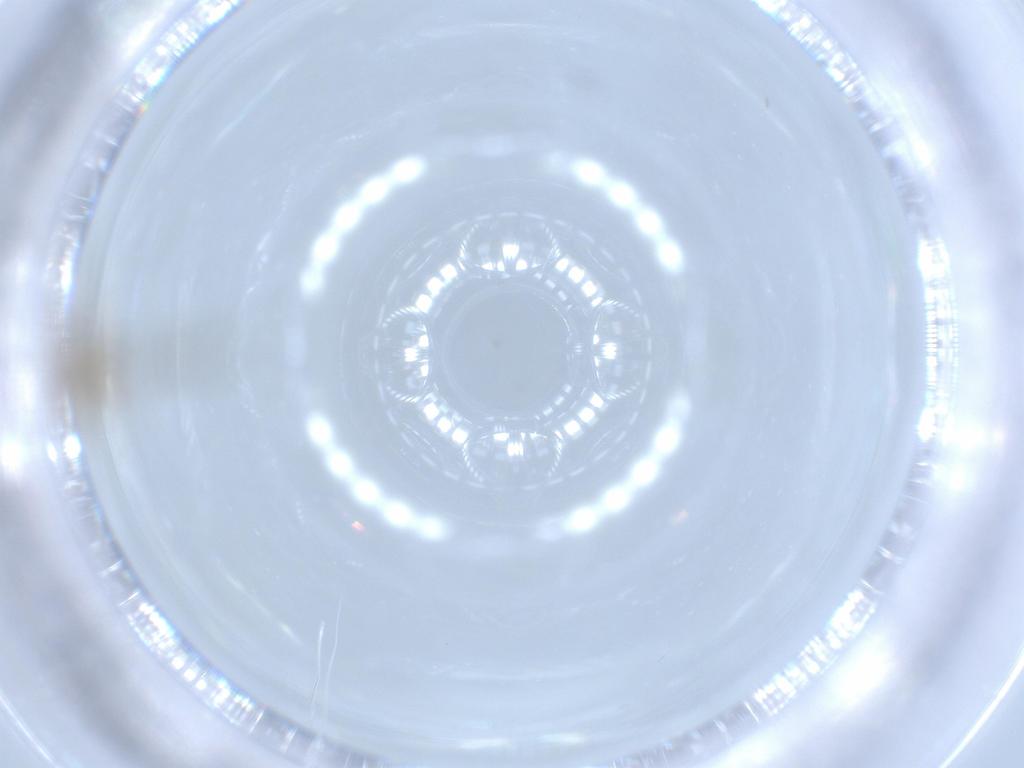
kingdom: Animalia
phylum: Arthropoda
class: Insecta
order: Diptera
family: Chironomidae
